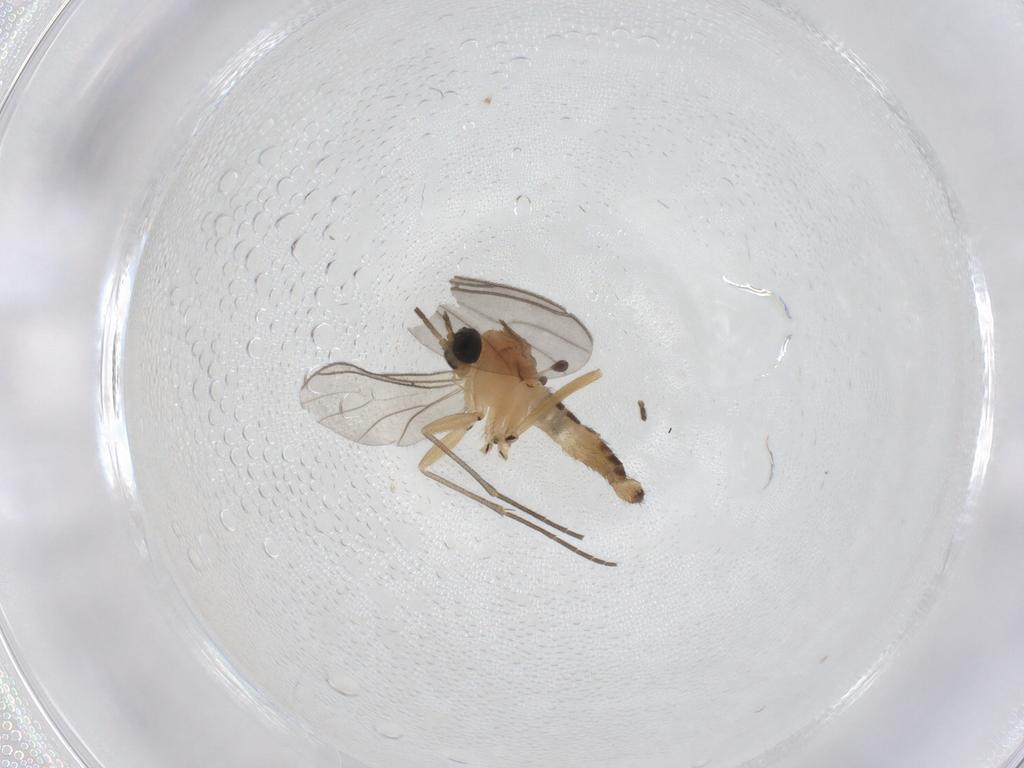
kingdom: Animalia
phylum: Arthropoda
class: Insecta
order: Diptera
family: Sciaridae
